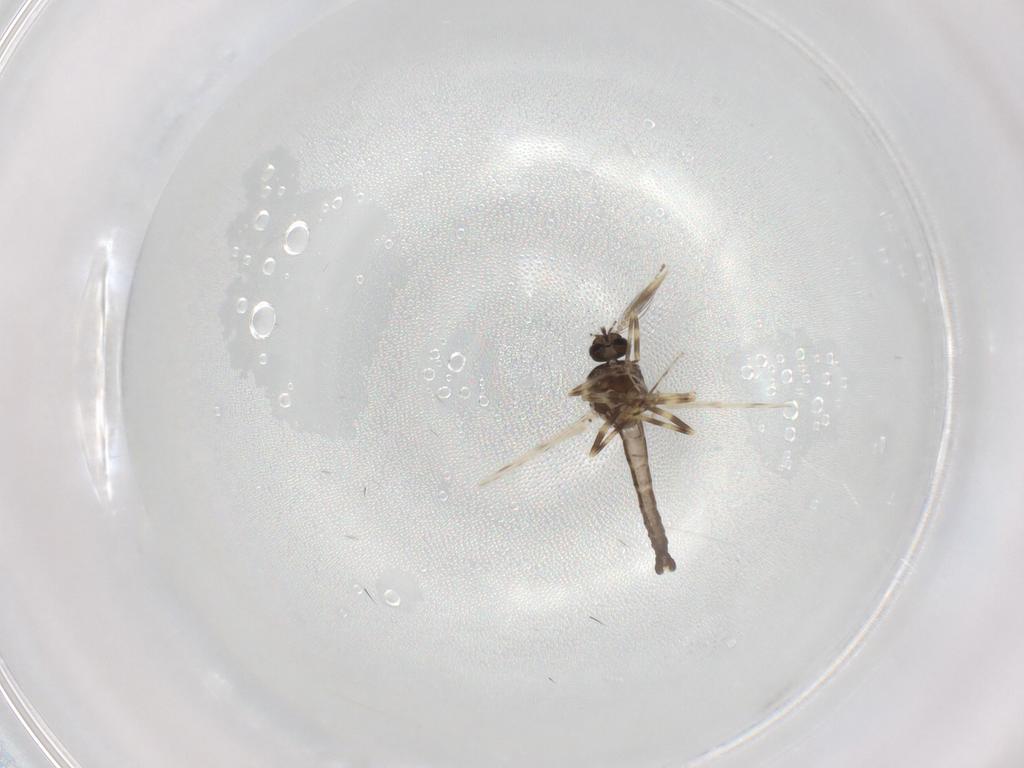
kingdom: Animalia
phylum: Arthropoda
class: Insecta
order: Diptera
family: Ceratopogonidae
